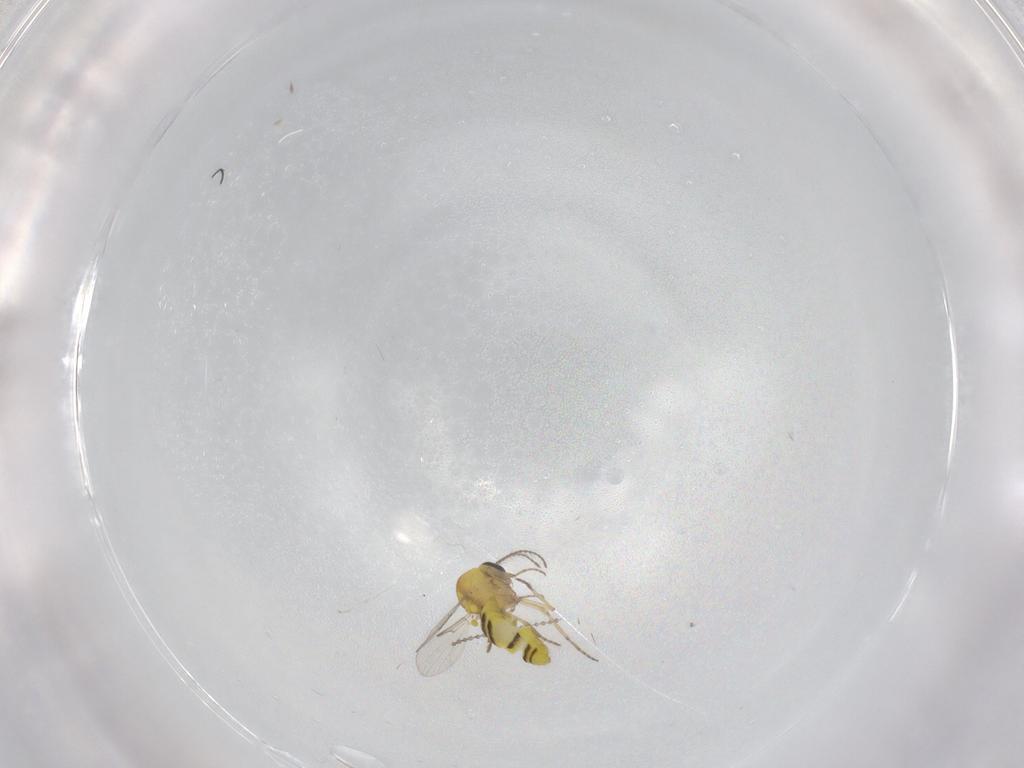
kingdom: Animalia
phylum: Arthropoda
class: Insecta
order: Diptera
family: Ceratopogonidae
